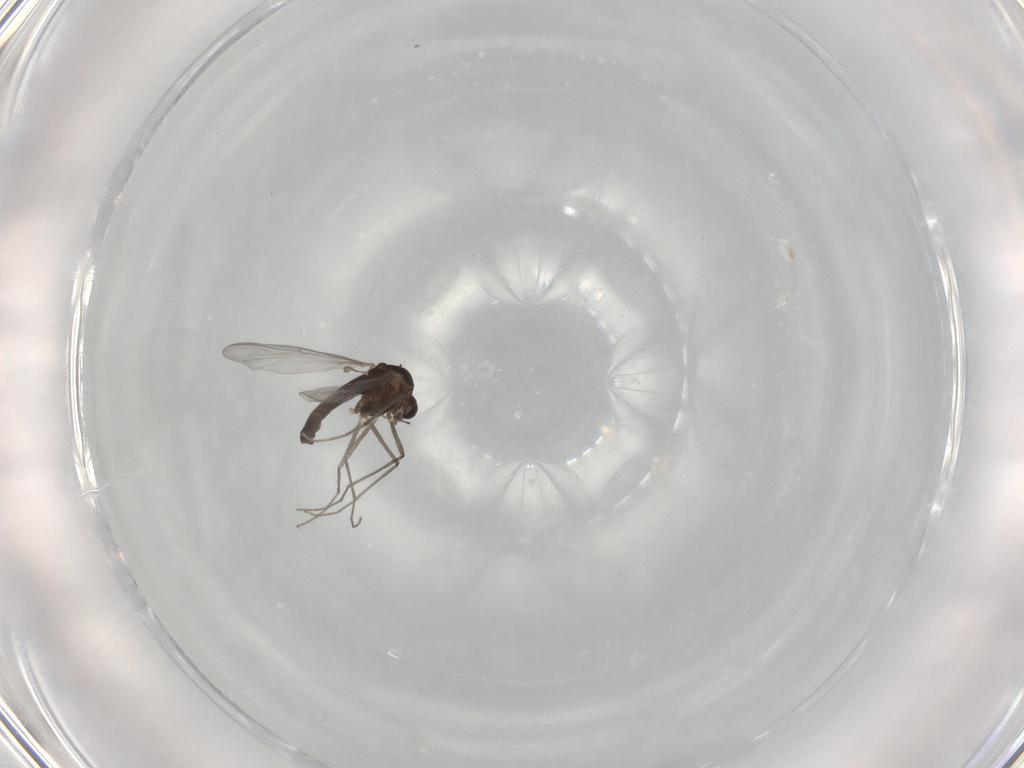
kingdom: Animalia
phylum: Arthropoda
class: Insecta
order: Diptera
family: Chironomidae
